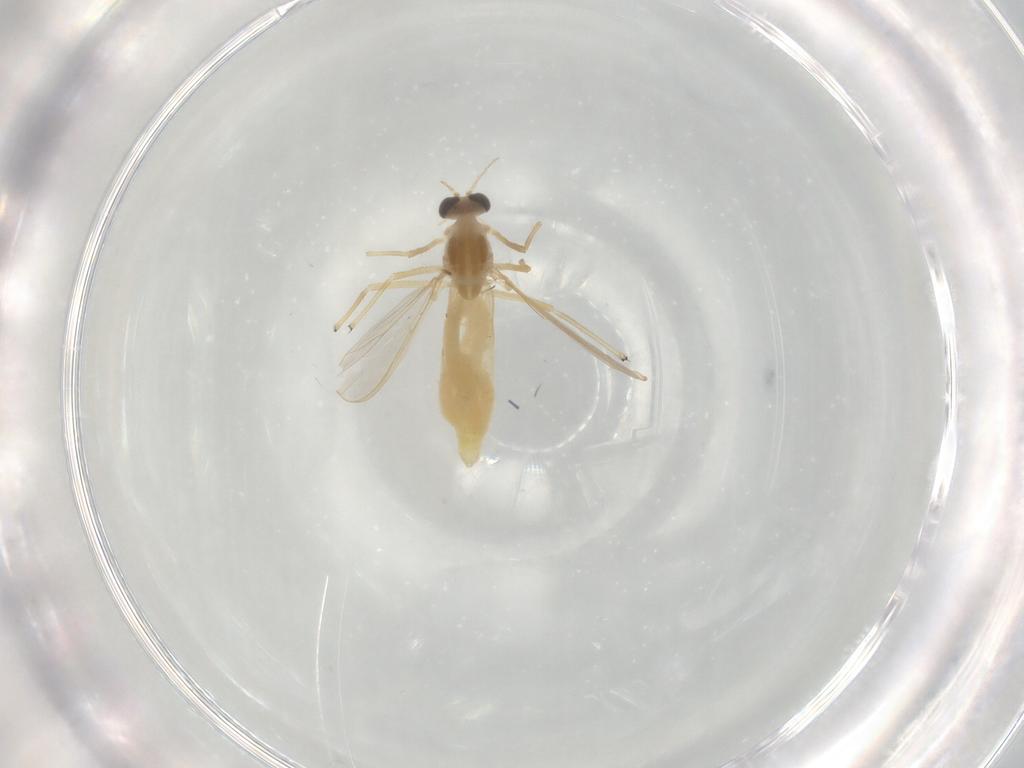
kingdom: Animalia
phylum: Arthropoda
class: Insecta
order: Diptera
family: Chironomidae
